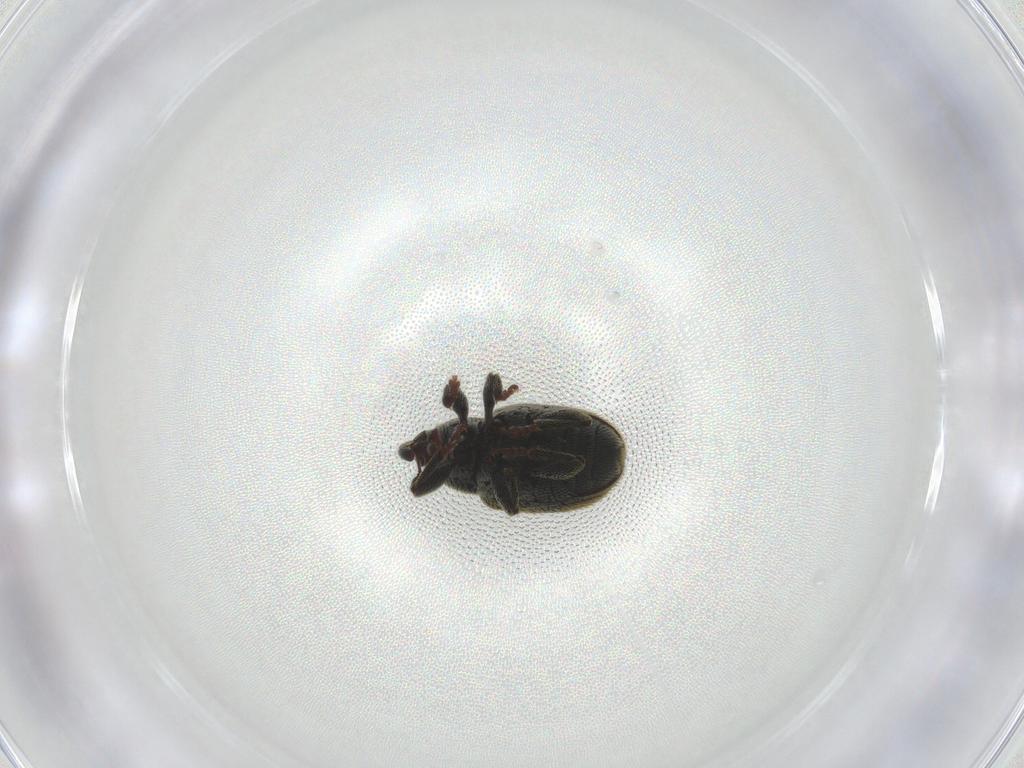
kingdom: Animalia
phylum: Arthropoda
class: Insecta
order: Coleoptera
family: Curculionidae
